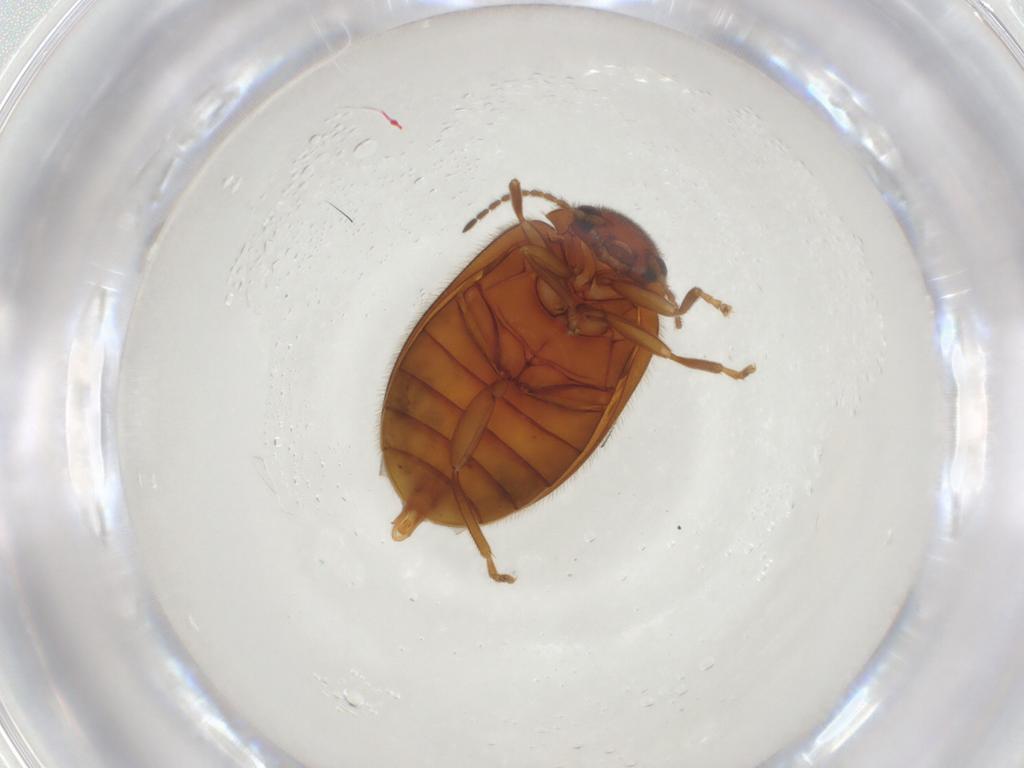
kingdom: Animalia
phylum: Arthropoda
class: Insecta
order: Coleoptera
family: Scirtidae
